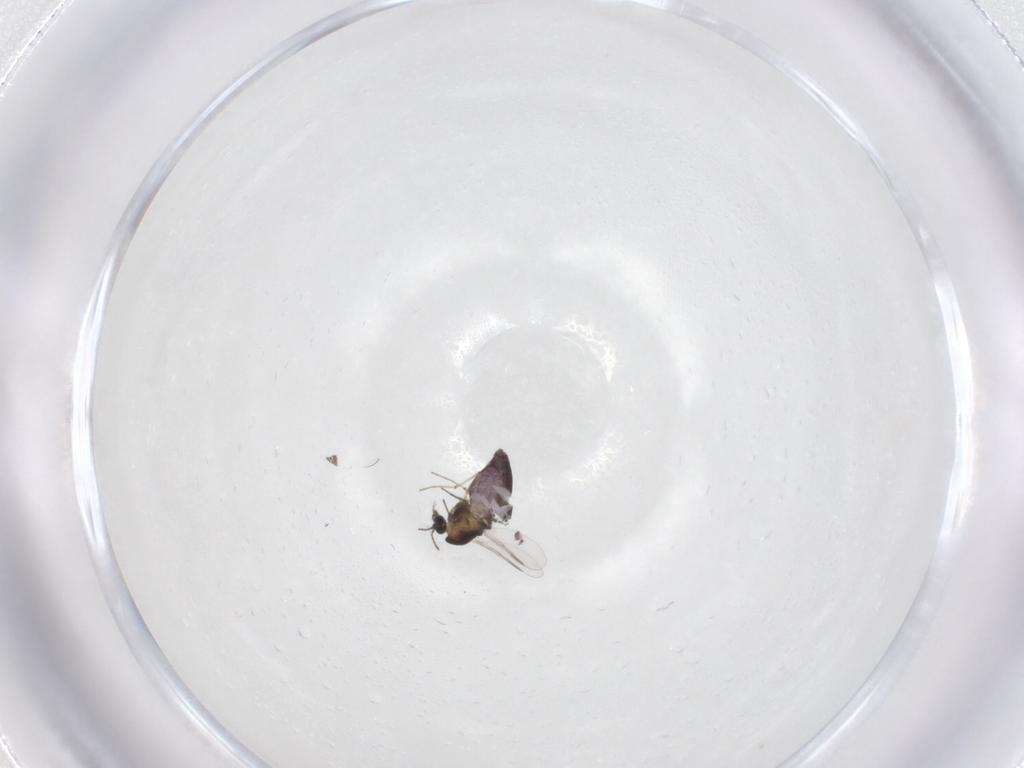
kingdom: Animalia
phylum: Arthropoda
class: Insecta
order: Diptera
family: Chironomidae
